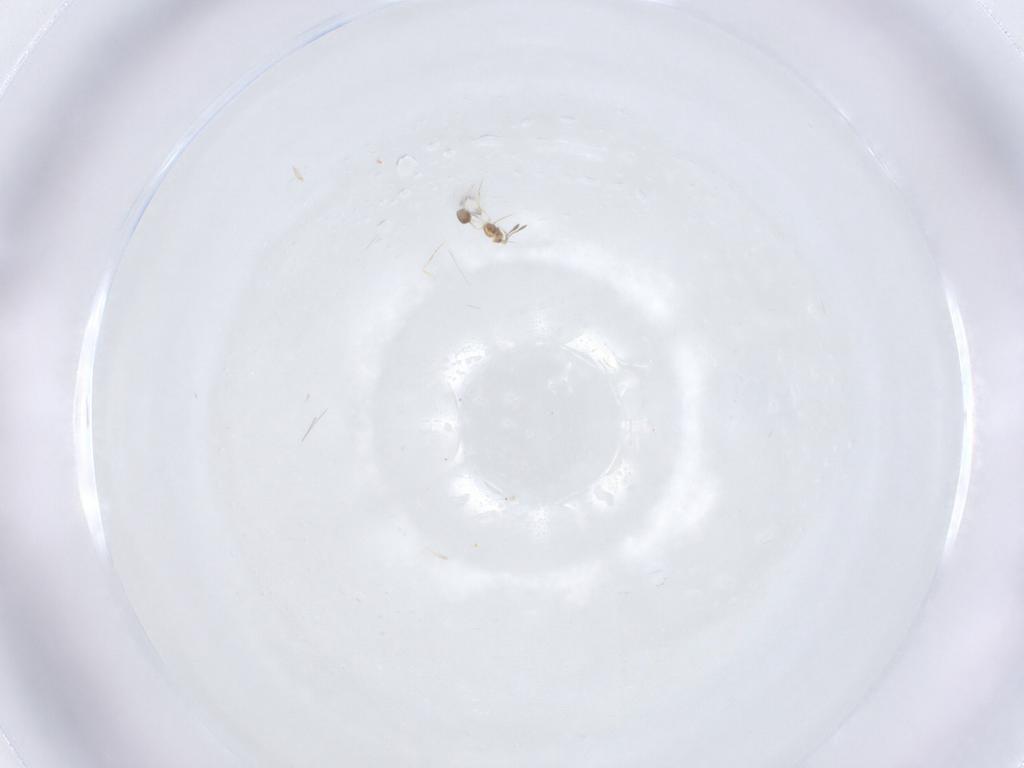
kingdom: Animalia
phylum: Arthropoda
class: Insecta
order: Hymenoptera
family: Mymarommatidae
